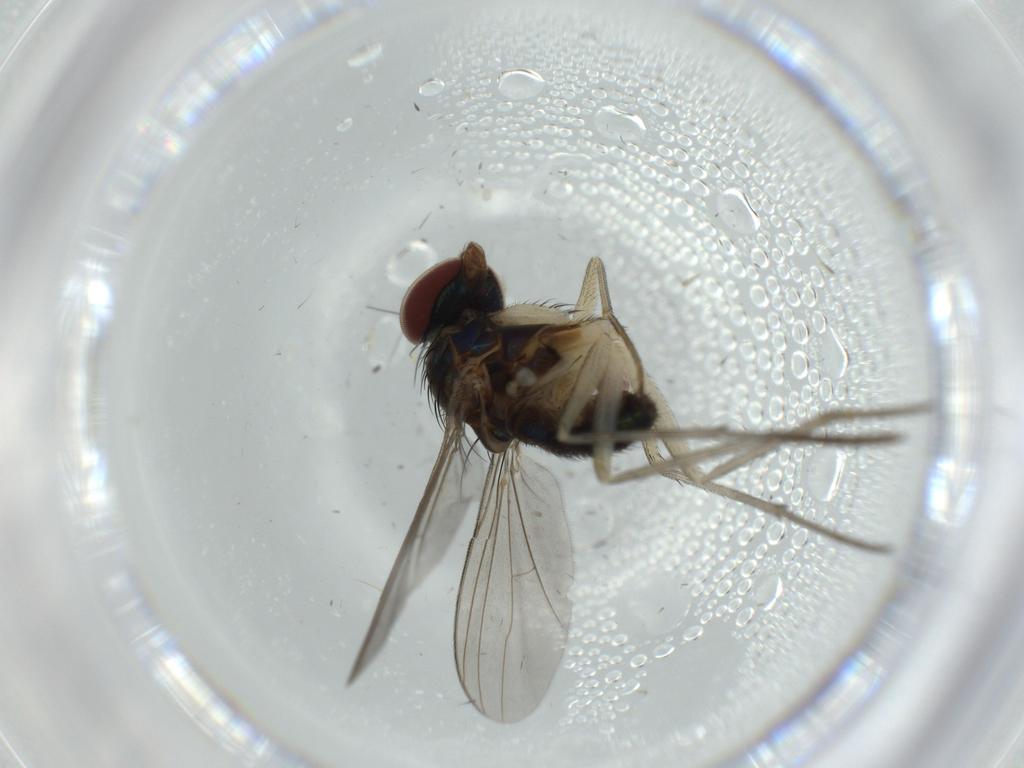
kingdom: Animalia
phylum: Arthropoda
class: Insecta
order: Diptera
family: Dolichopodidae
